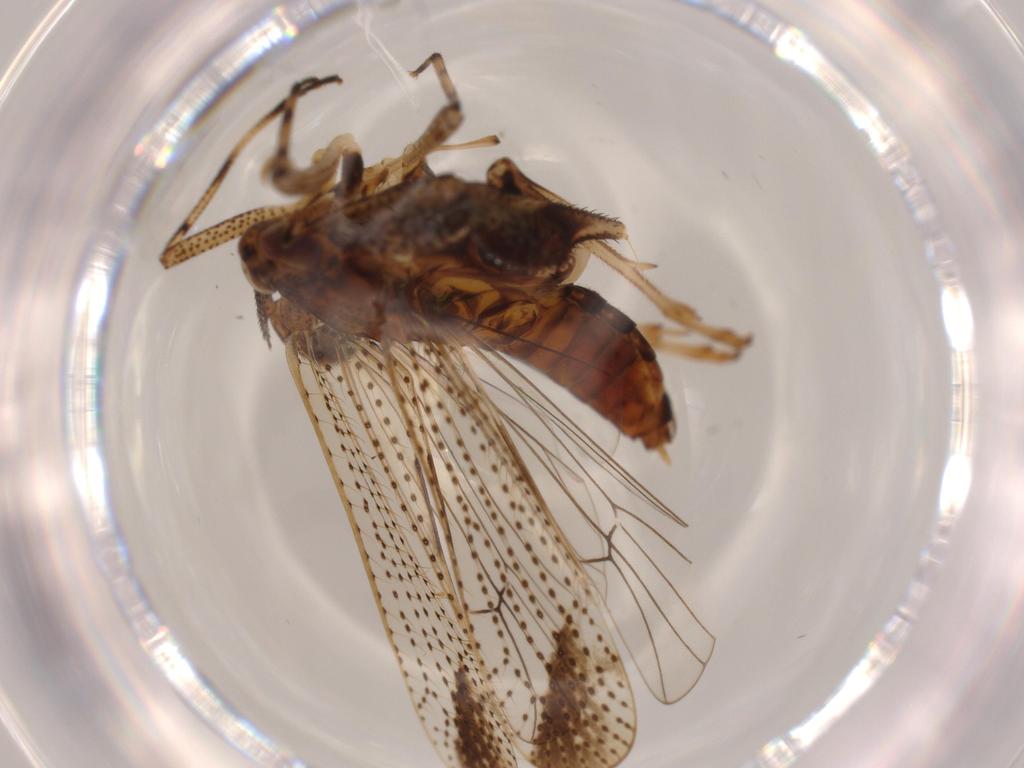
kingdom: Animalia
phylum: Arthropoda
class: Insecta
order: Hemiptera
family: Delphacidae
